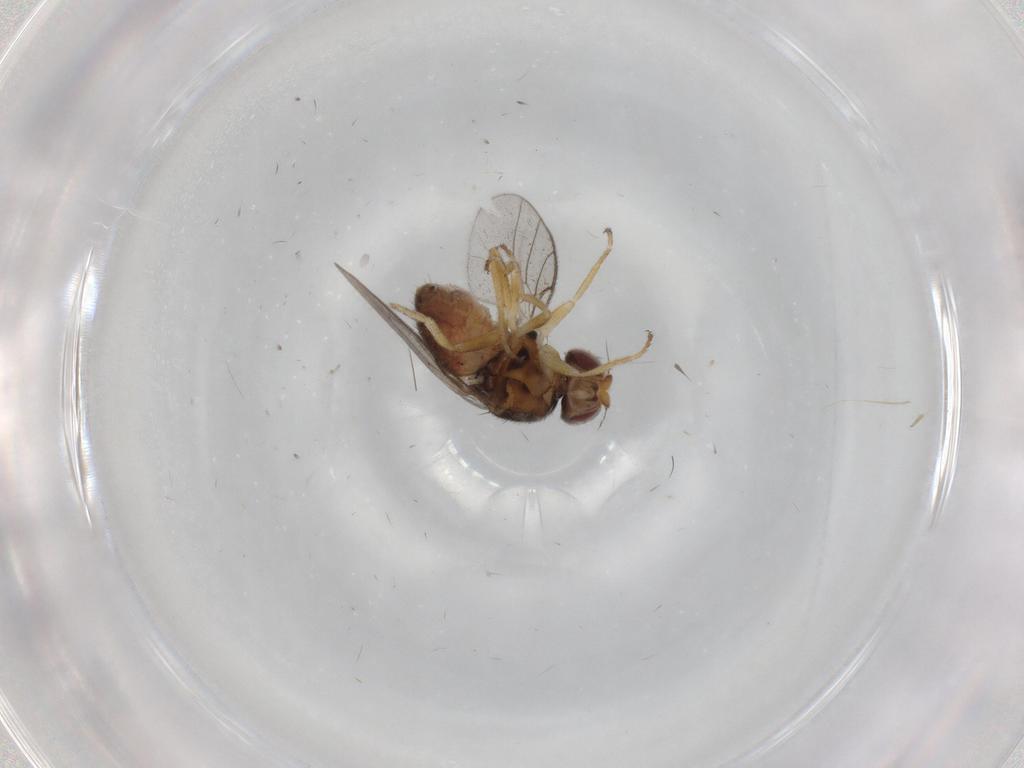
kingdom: Animalia
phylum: Arthropoda
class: Insecta
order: Diptera
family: Chloropidae
